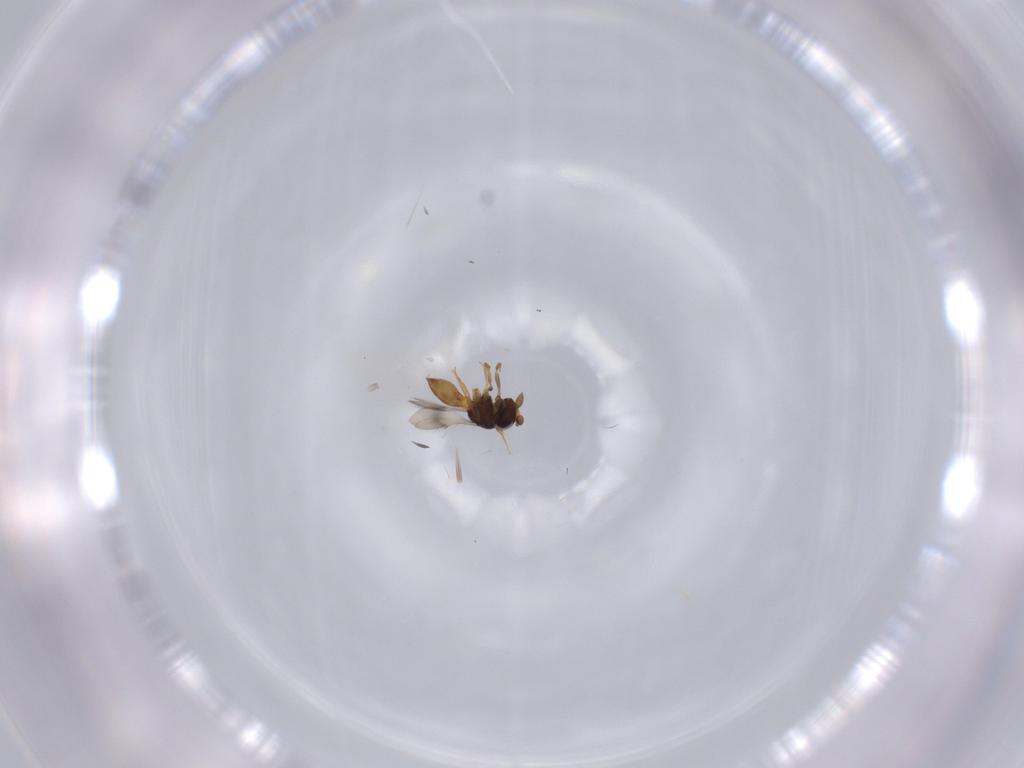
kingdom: Animalia
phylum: Arthropoda
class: Insecta
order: Hymenoptera
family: Scelionidae
